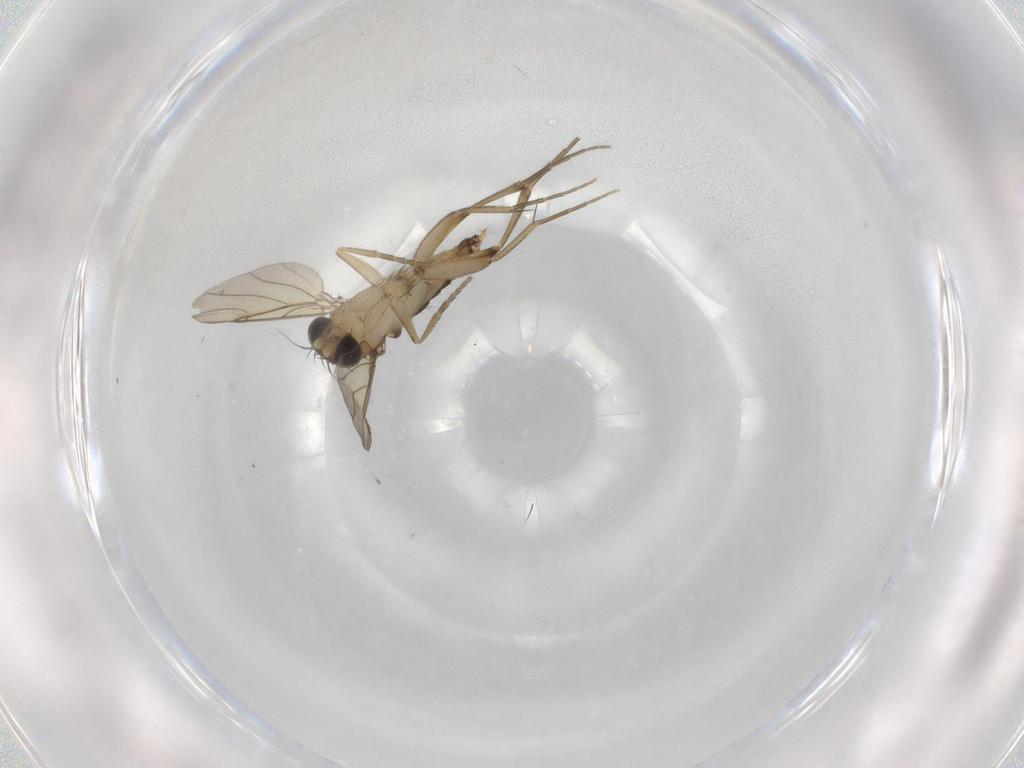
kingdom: Animalia
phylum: Arthropoda
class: Insecta
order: Diptera
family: Phoridae
